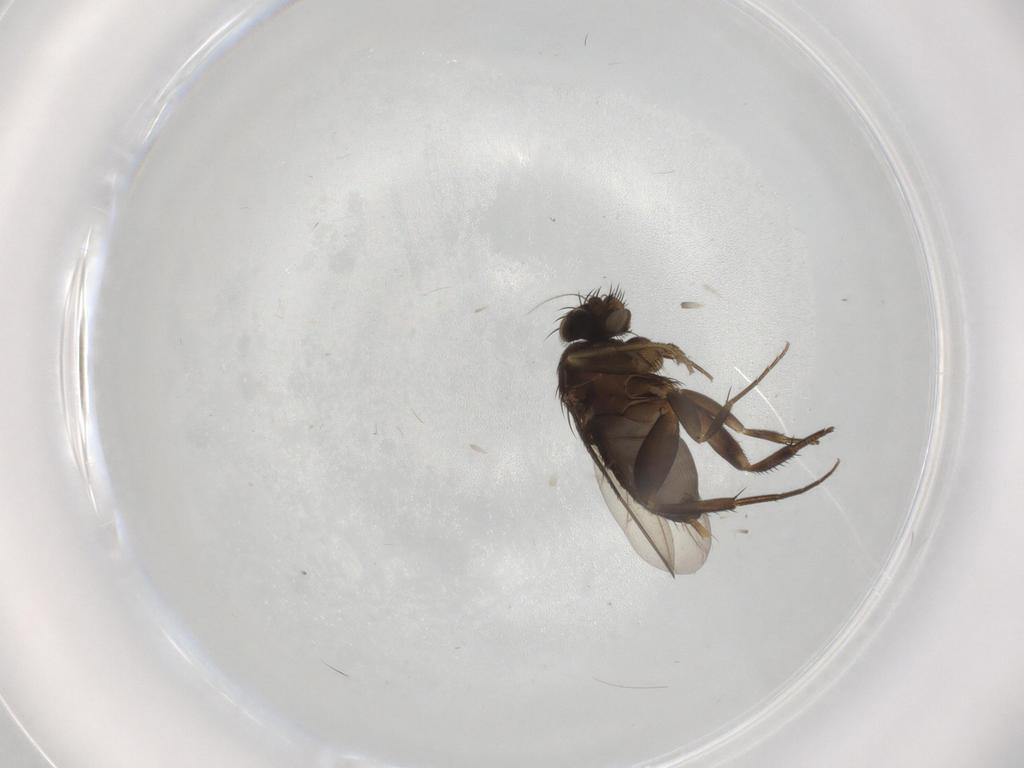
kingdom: Animalia
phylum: Arthropoda
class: Insecta
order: Diptera
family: Phoridae
